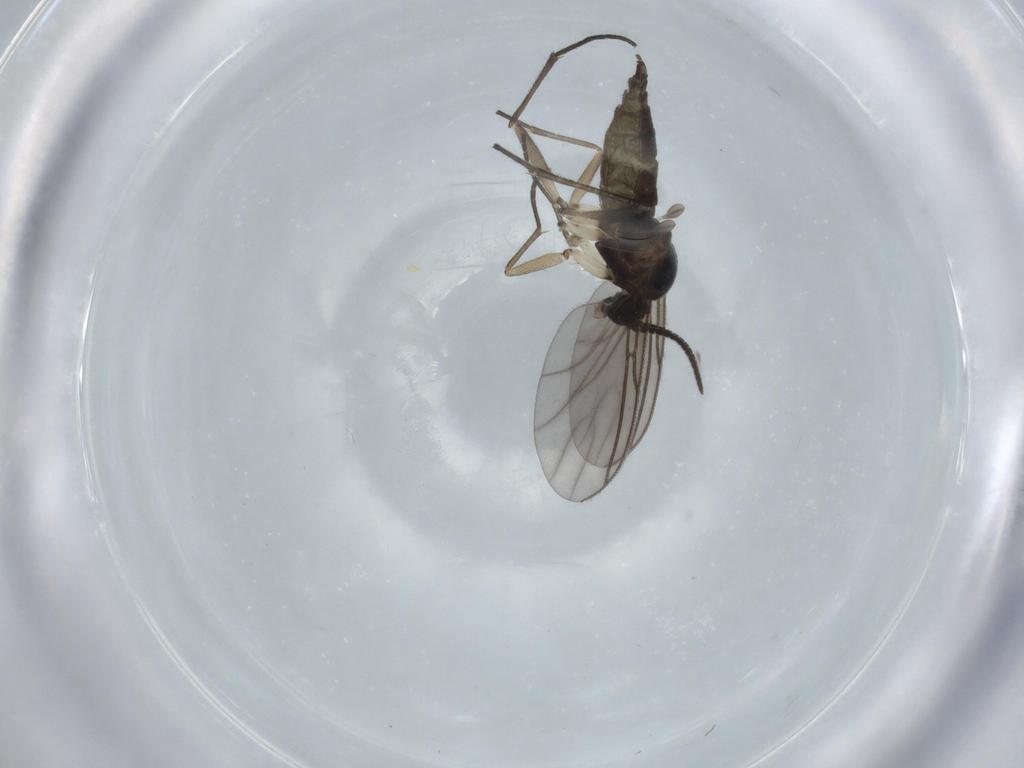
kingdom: Animalia
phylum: Arthropoda
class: Insecta
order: Diptera
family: Sciaridae
